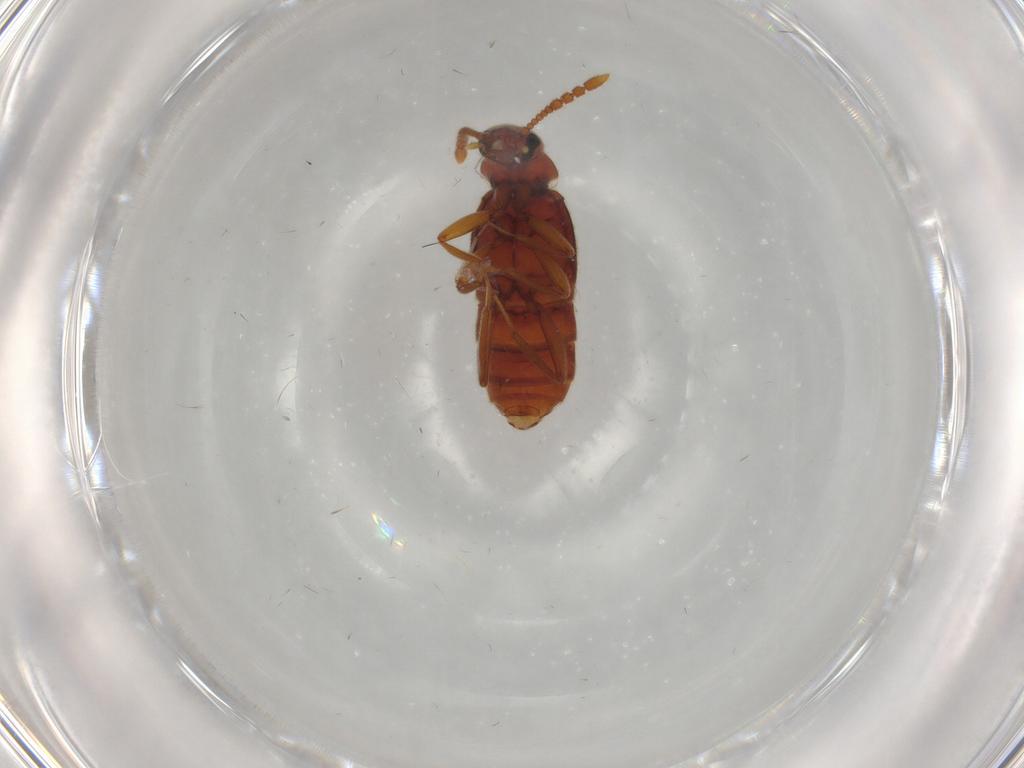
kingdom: Animalia
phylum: Arthropoda
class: Insecta
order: Coleoptera
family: Staphylinidae
